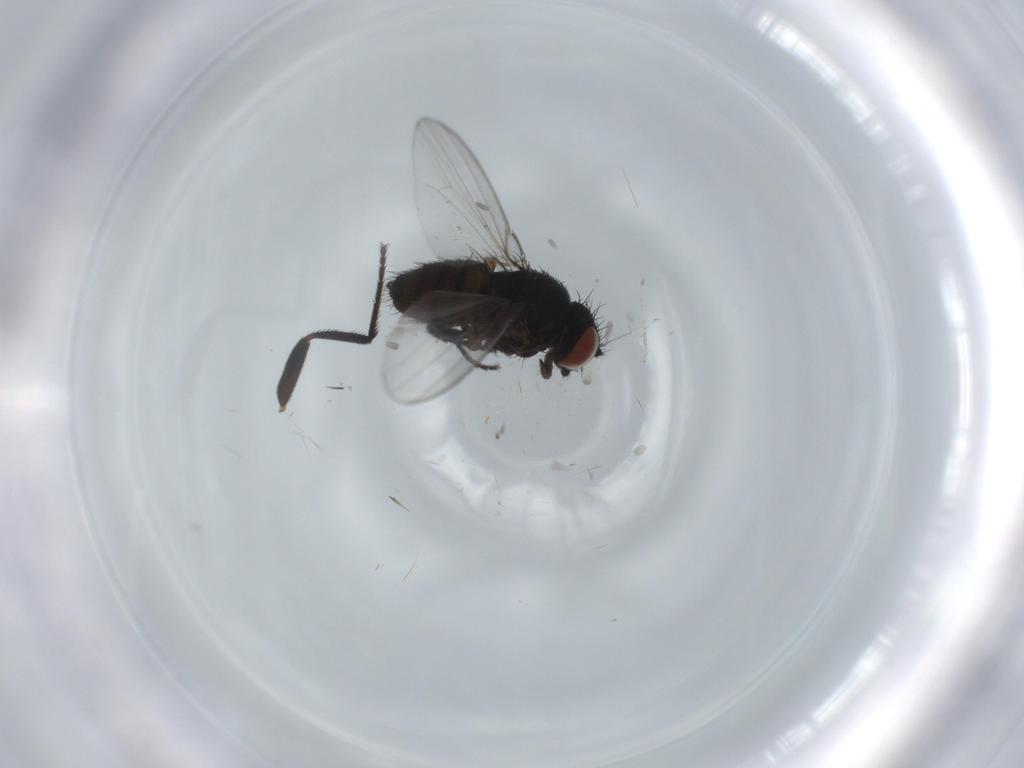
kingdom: Animalia
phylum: Arthropoda
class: Insecta
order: Diptera
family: Milichiidae
